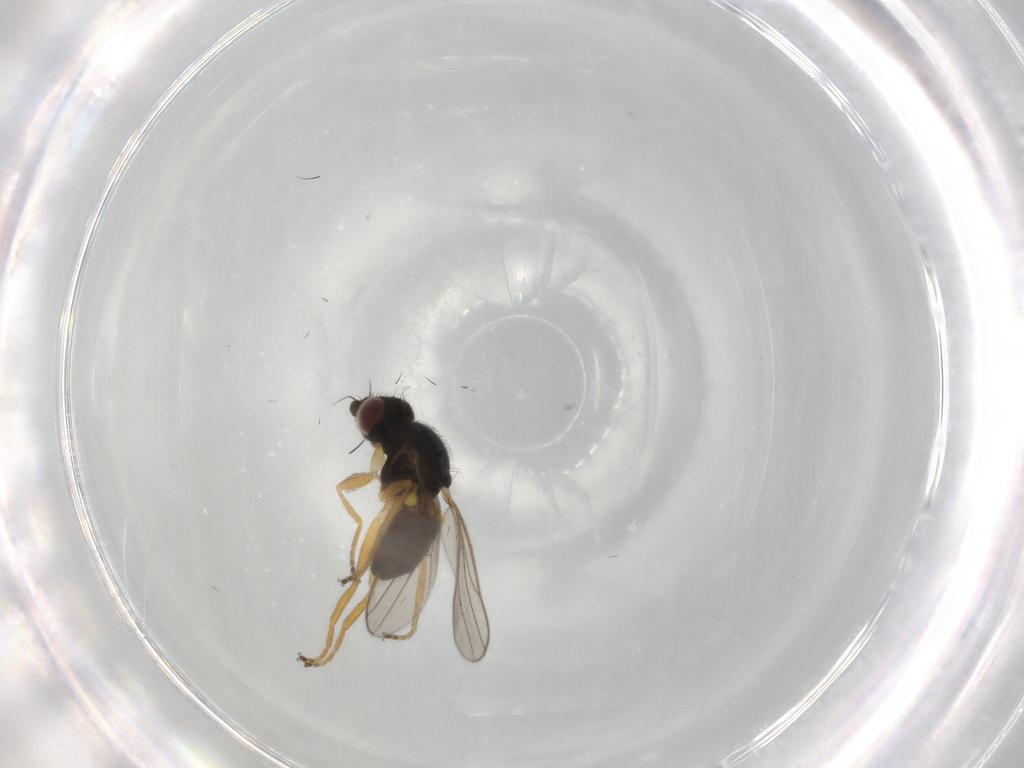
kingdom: Animalia
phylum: Arthropoda
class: Insecta
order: Diptera
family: Chloropidae
